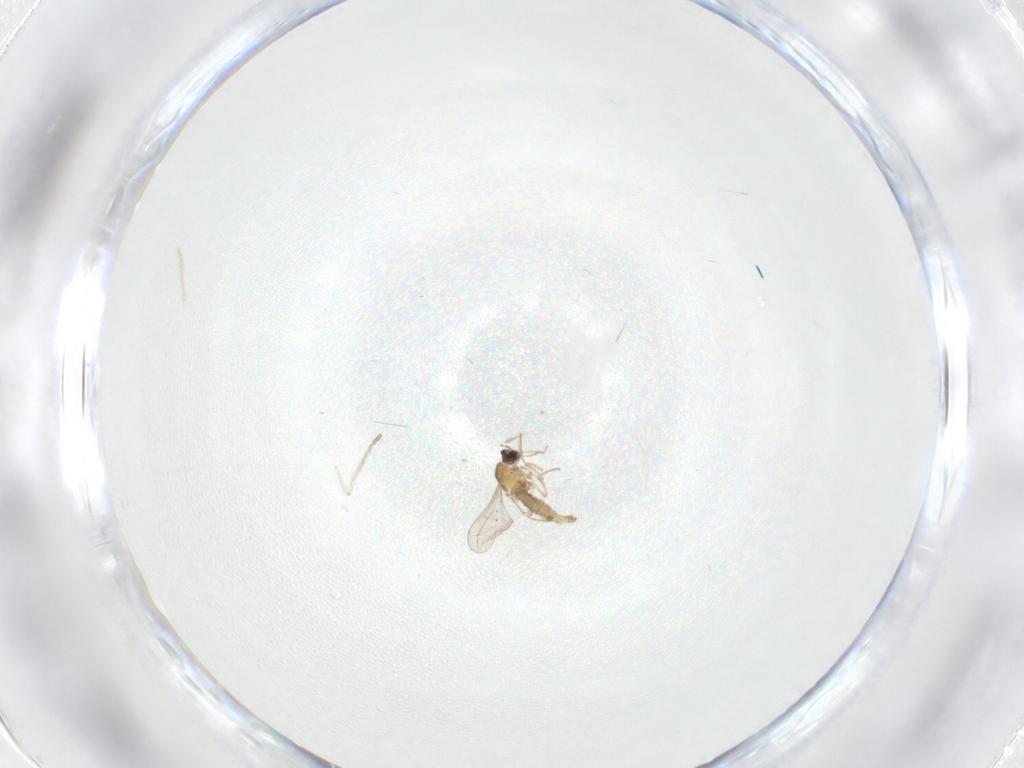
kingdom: Animalia
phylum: Arthropoda
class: Insecta
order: Diptera
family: Cecidomyiidae
